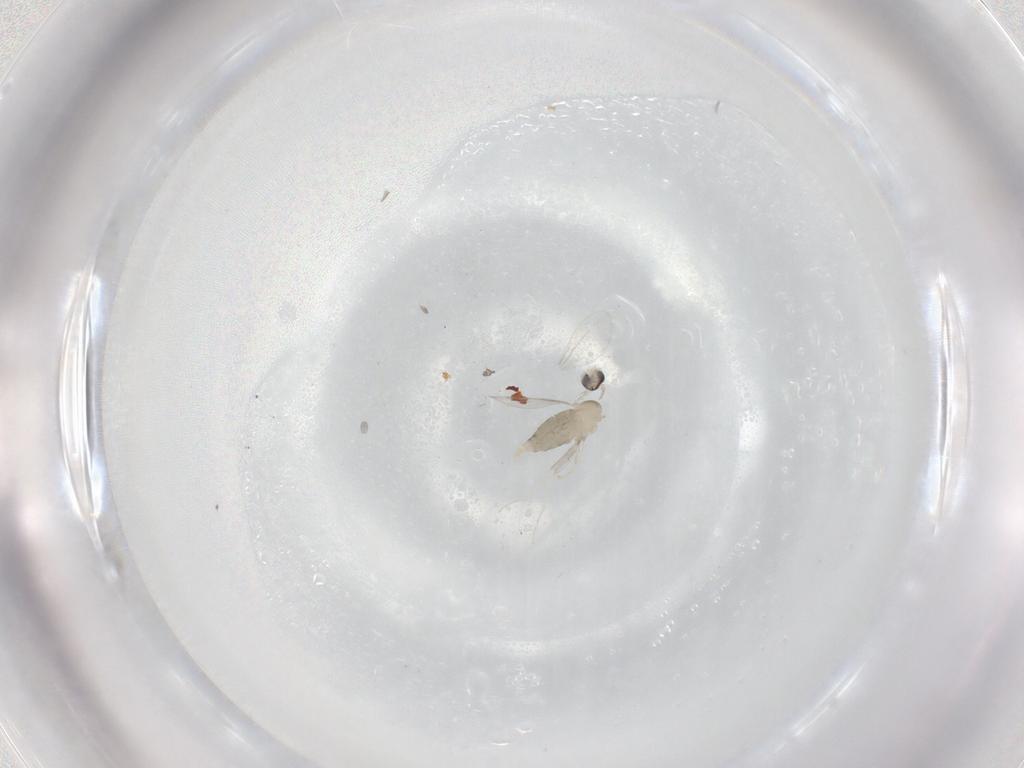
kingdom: Animalia
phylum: Arthropoda
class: Insecta
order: Diptera
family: Cecidomyiidae
